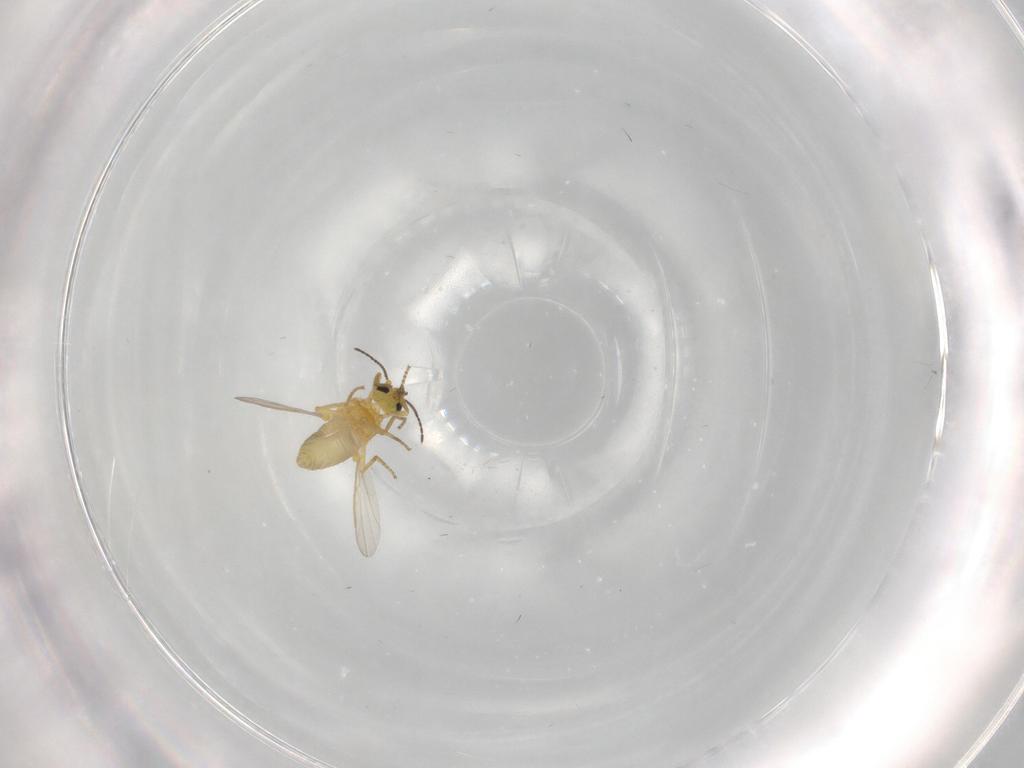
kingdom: Animalia
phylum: Arthropoda
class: Insecta
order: Diptera
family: Ceratopogonidae
